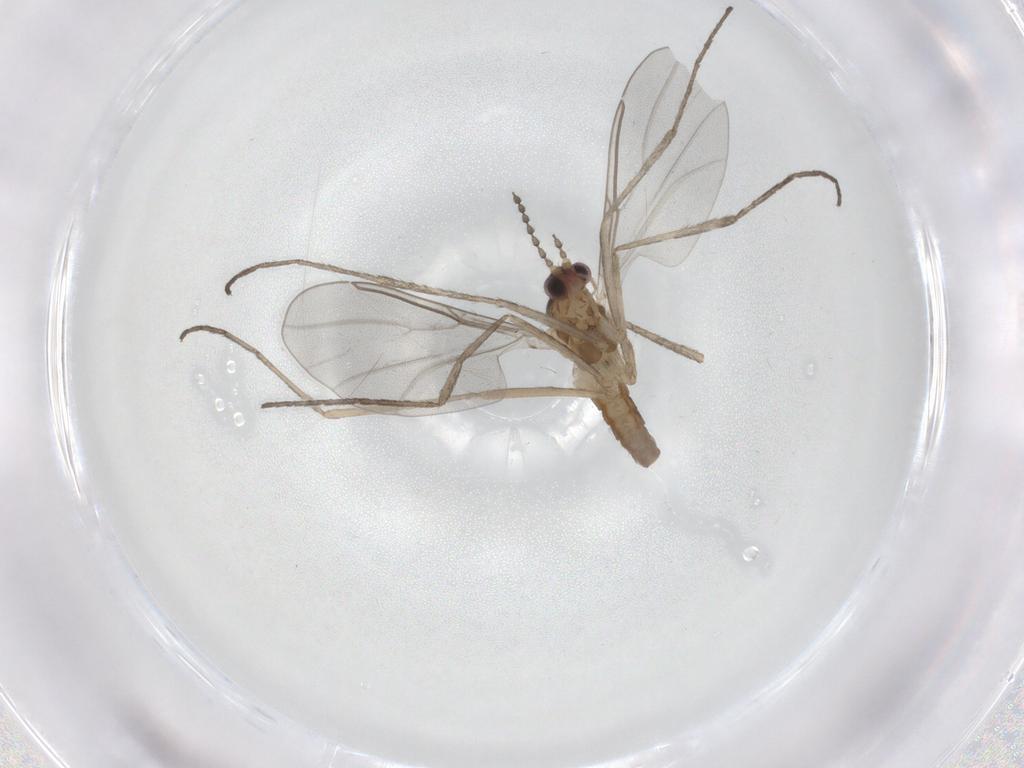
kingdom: Animalia
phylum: Arthropoda
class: Insecta
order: Diptera
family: Cecidomyiidae
